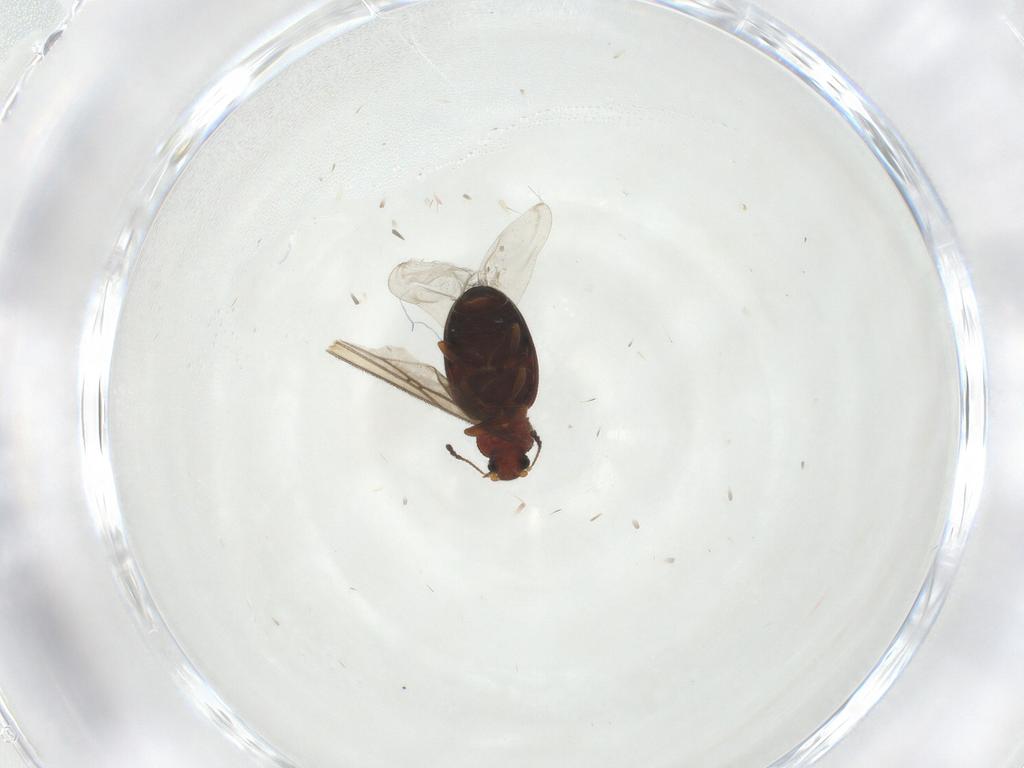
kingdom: Animalia
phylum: Arthropoda
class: Insecta
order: Coleoptera
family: Latridiidae
